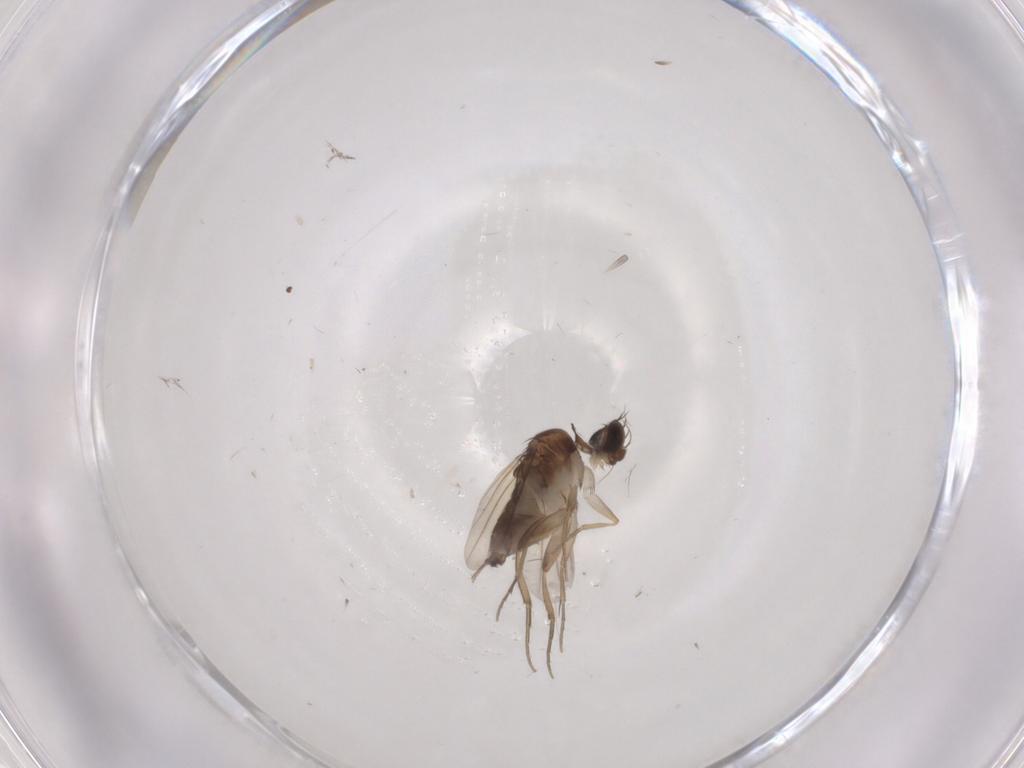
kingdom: Animalia
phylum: Arthropoda
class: Insecta
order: Diptera
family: Phoridae
